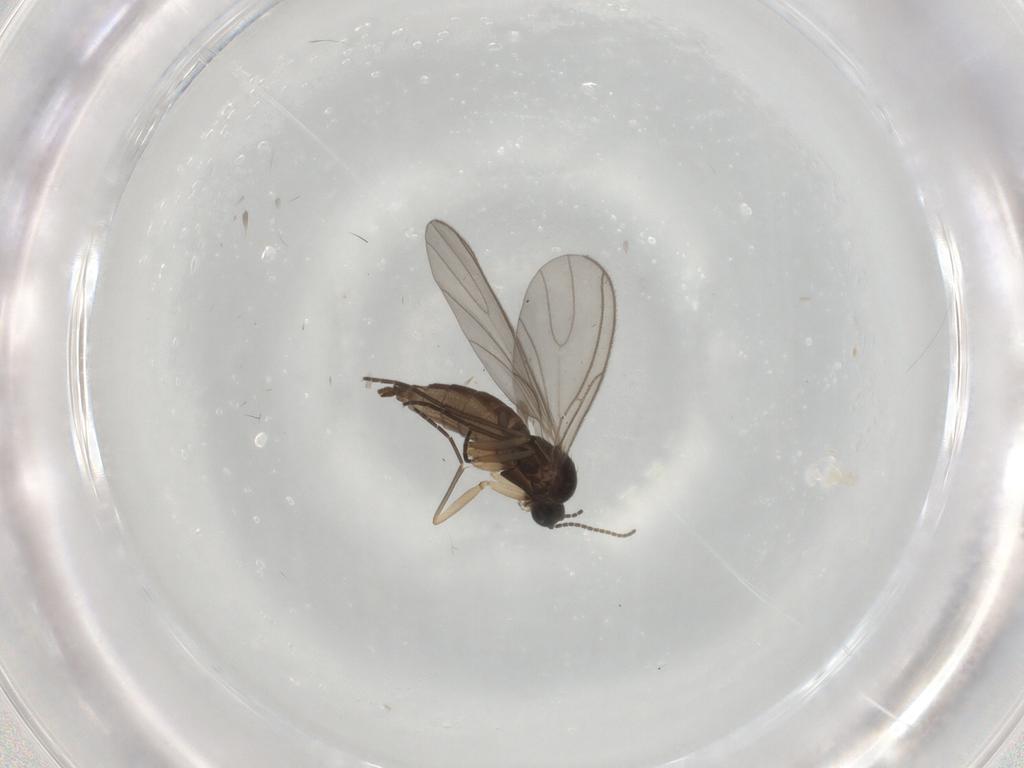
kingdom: Animalia
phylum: Arthropoda
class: Insecta
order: Diptera
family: Sciaridae
